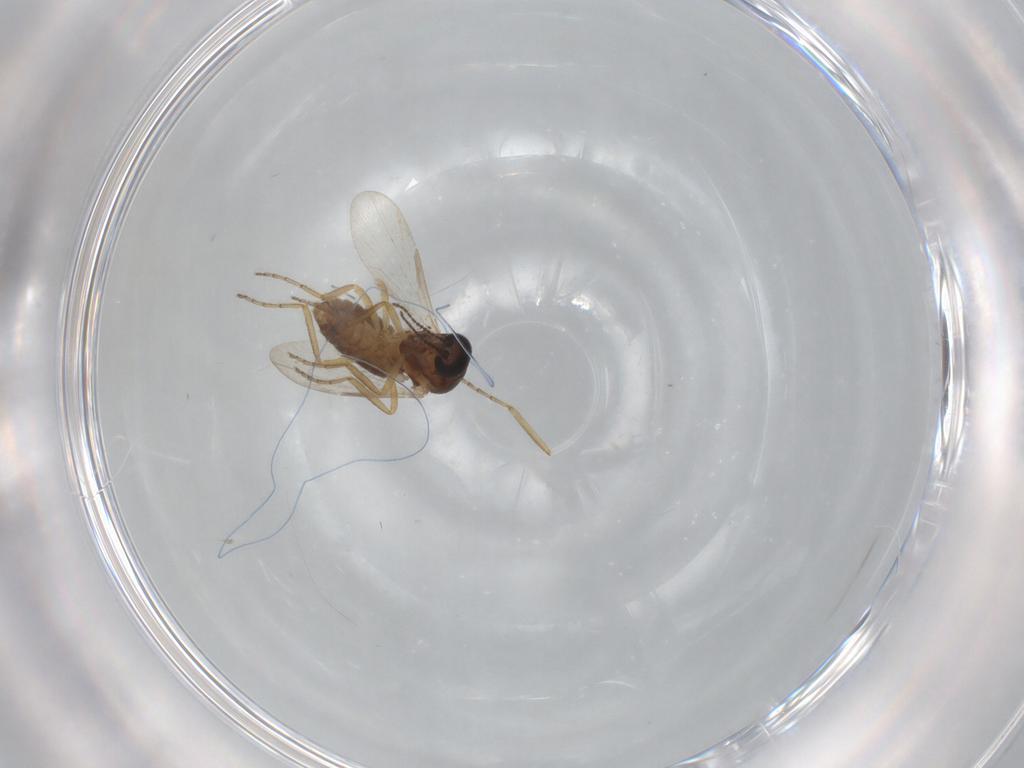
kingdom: Animalia
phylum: Arthropoda
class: Insecta
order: Diptera
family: Ceratopogonidae
